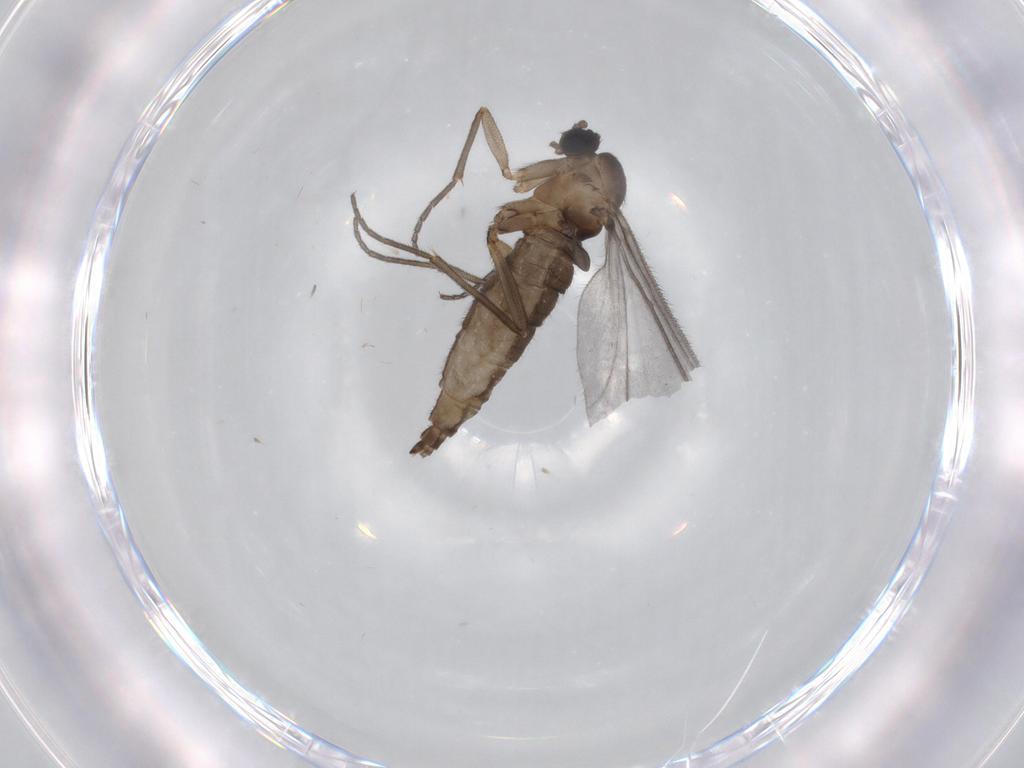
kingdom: Animalia
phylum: Arthropoda
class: Insecta
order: Diptera
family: Sciaridae
